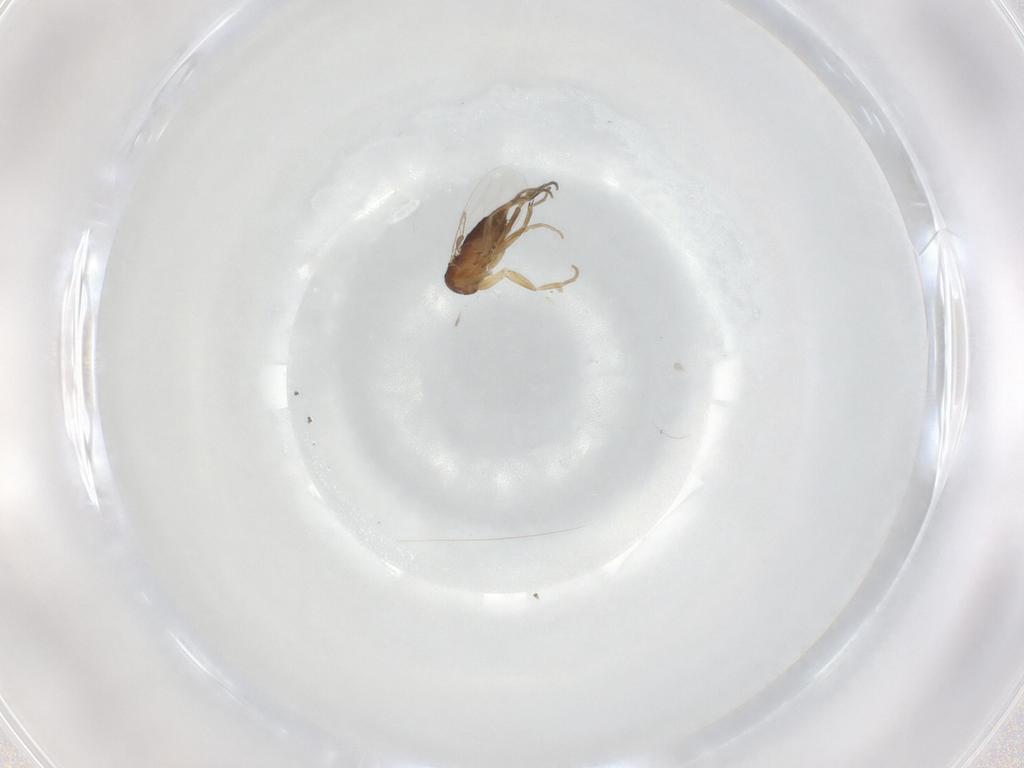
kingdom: Animalia
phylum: Arthropoda
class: Insecta
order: Diptera
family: Phoridae
